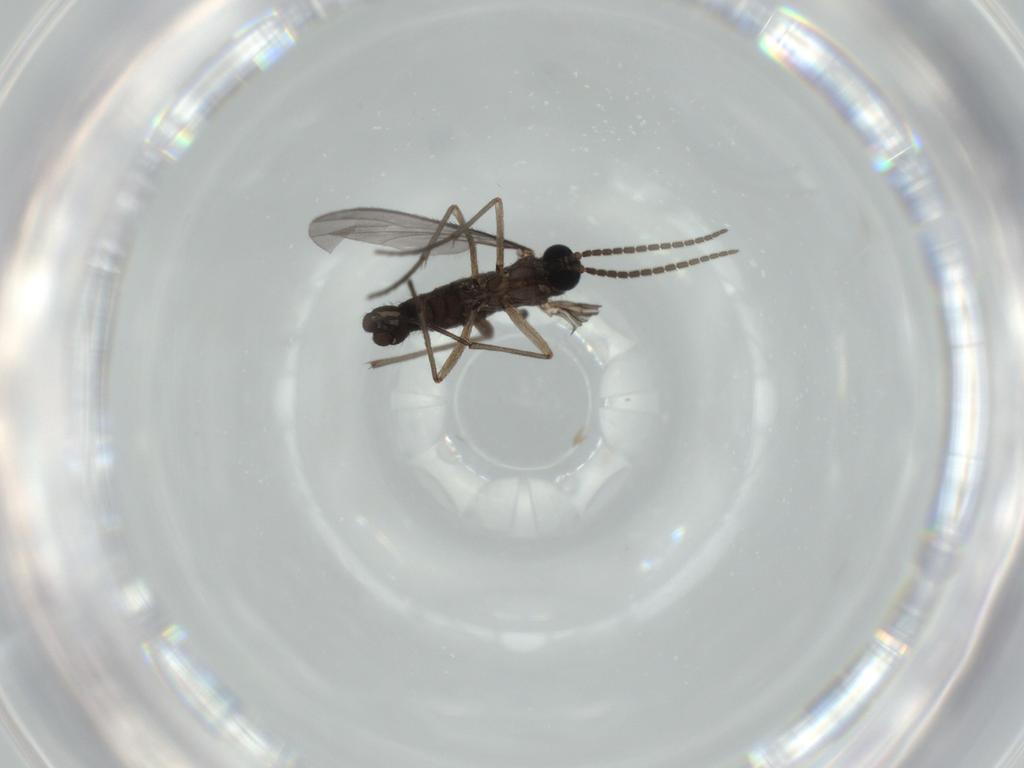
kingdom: Animalia
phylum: Arthropoda
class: Insecta
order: Diptera
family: Sciaridae
